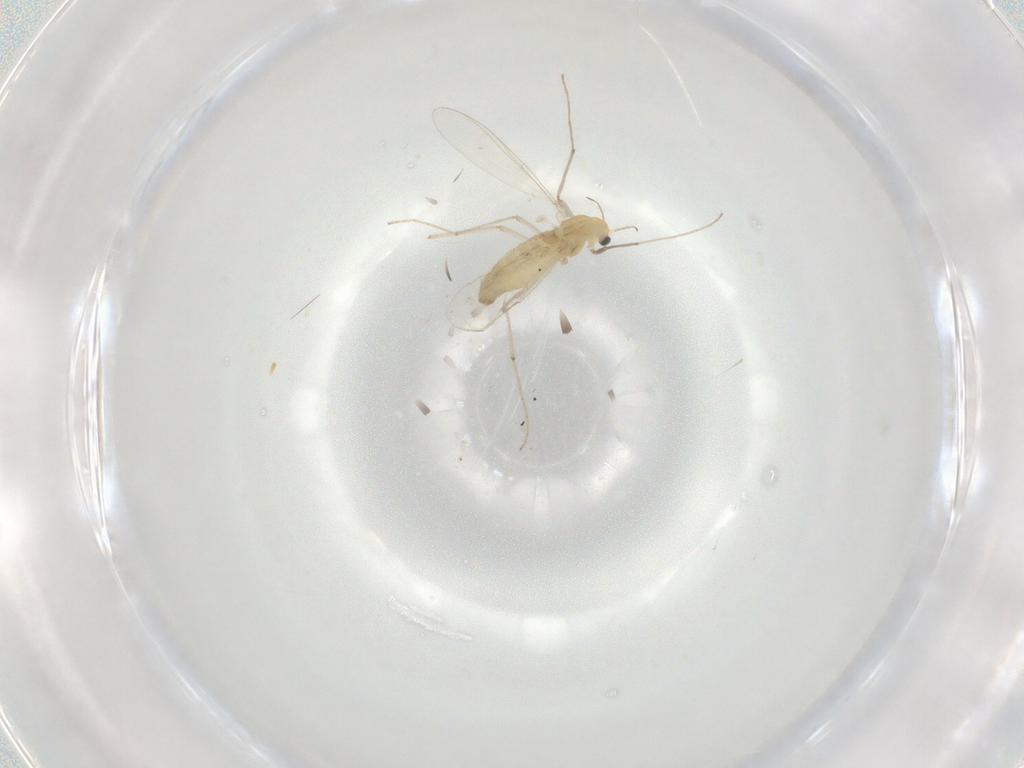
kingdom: Animalia
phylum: Arthropoda
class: Insecta
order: Diptera
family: Chironomidae
